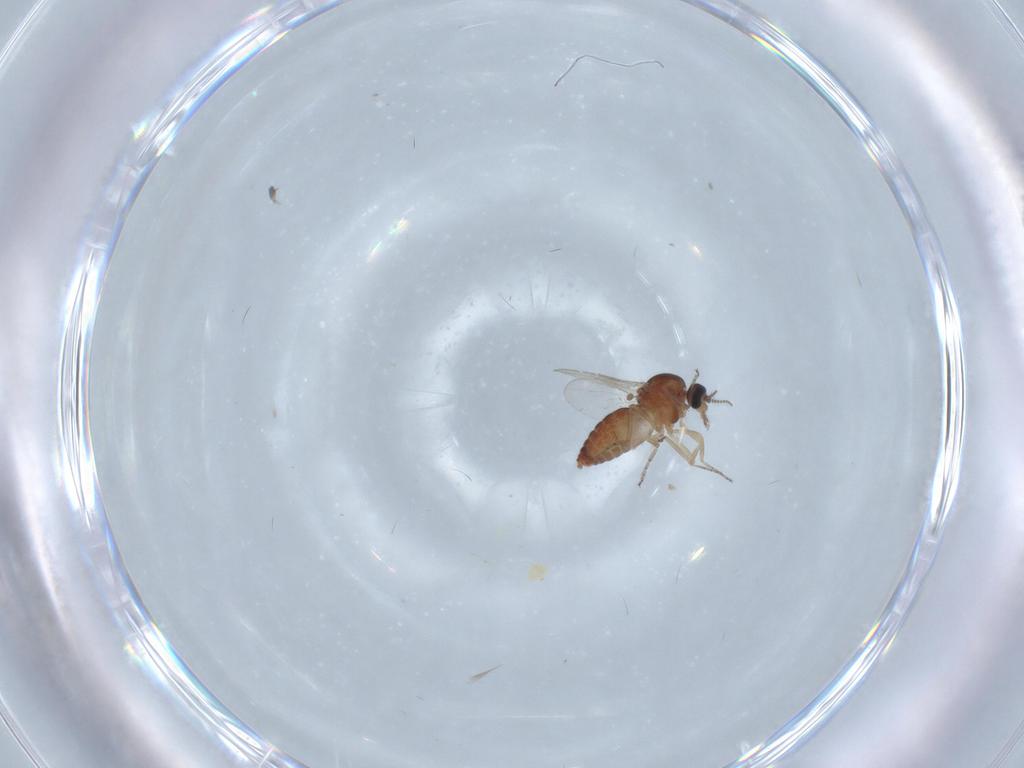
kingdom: Animalia
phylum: Arthropoda
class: Insecta
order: Diptera
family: Ceratopogonidae
